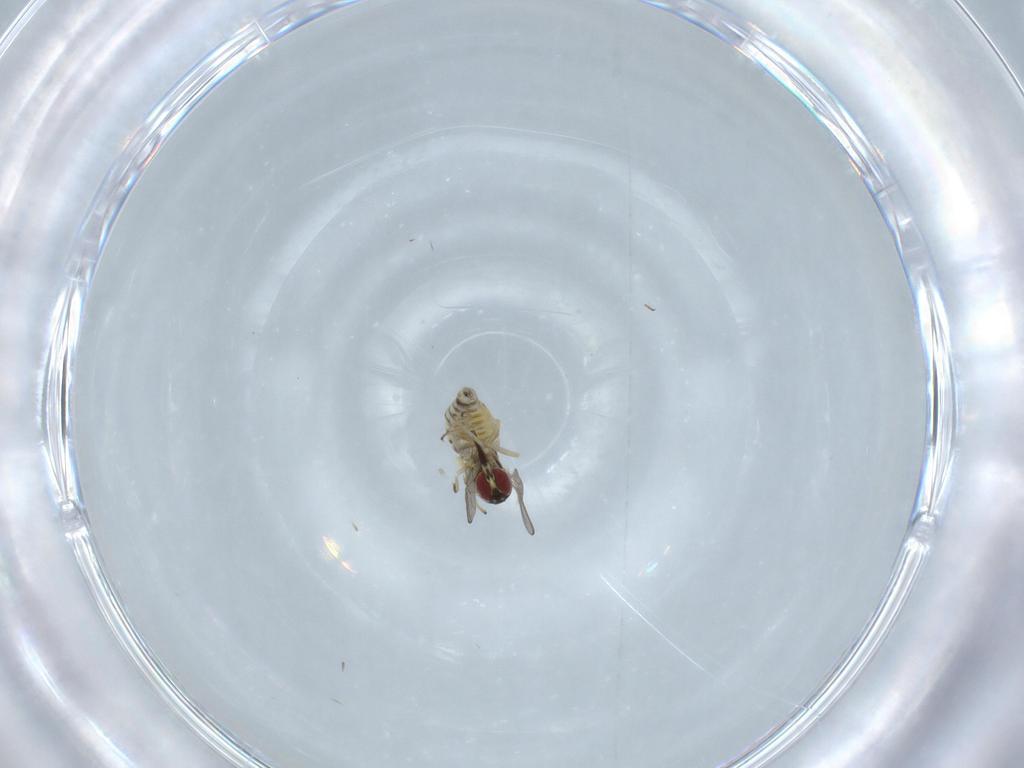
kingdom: Animalia
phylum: Arthropoda
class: Insecta
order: Diptera
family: Bombyliidae
